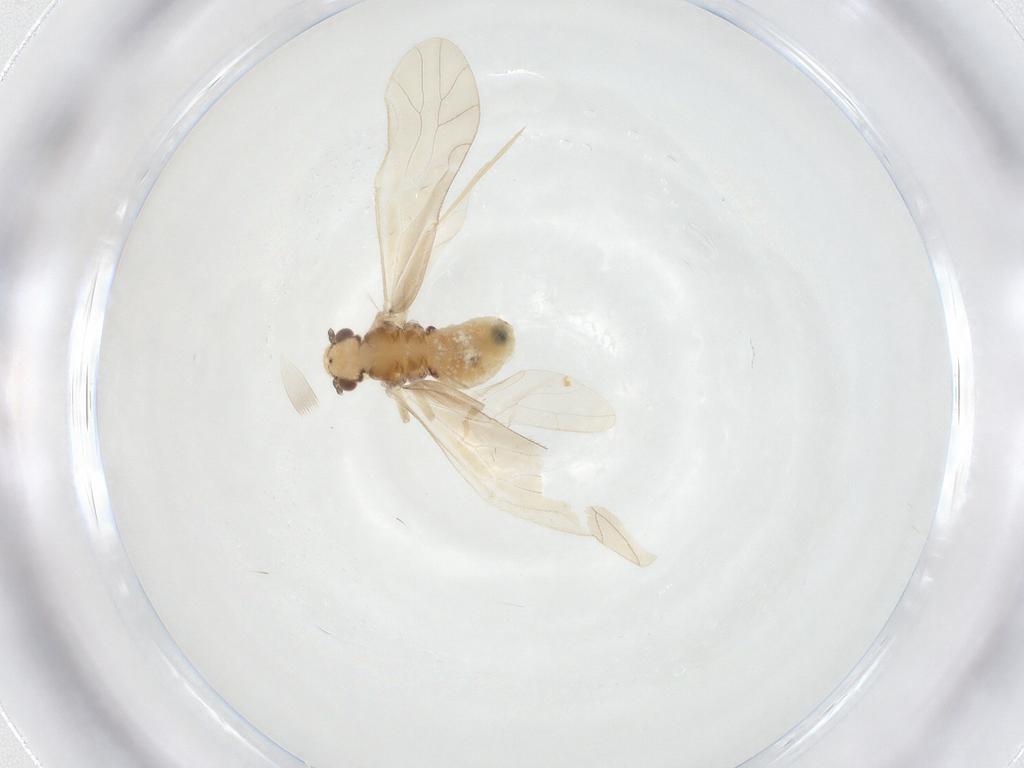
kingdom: Animalia
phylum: Arthropoda
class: Insecta
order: Psocodea
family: Caeciliusidae
